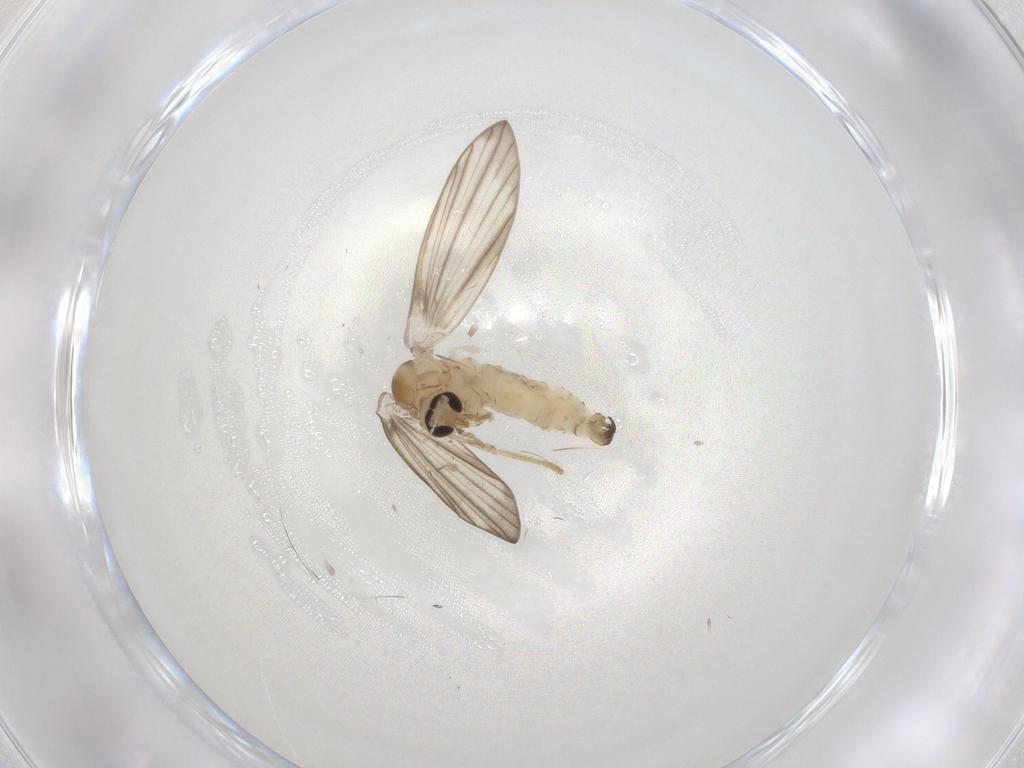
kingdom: Animalia
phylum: Arthropoda
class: Insecta
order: Diptera
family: Psychodidae
